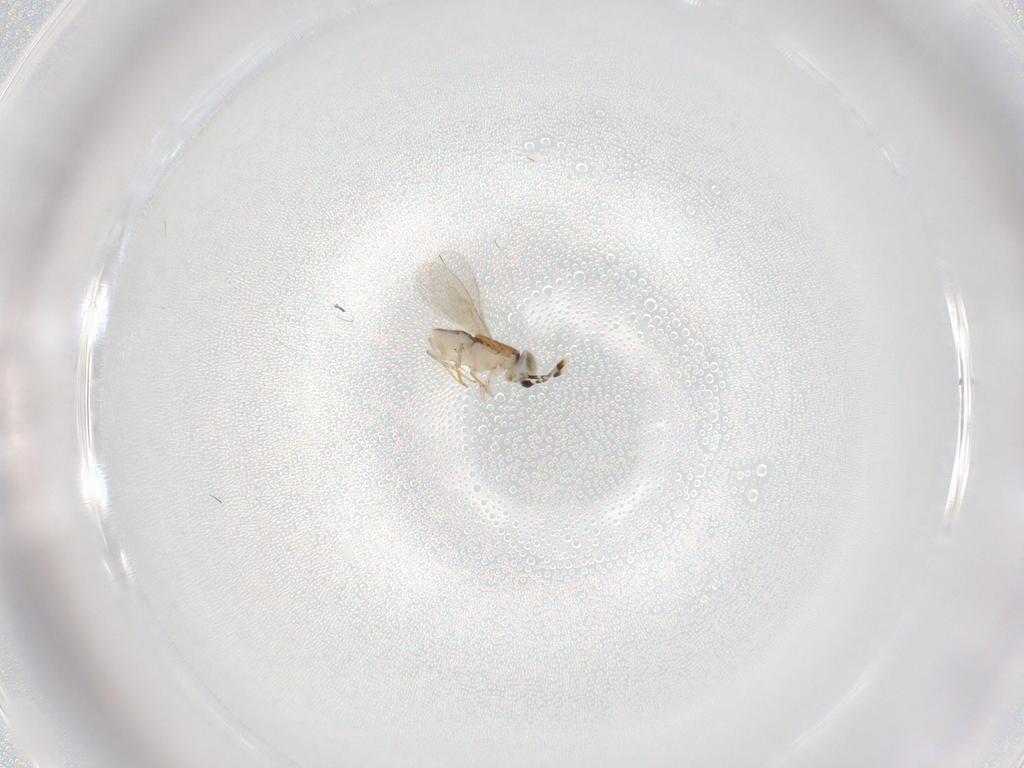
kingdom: Animalia
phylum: Arthropoda
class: Insecta
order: Hymenoptera
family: Encyrtidae
